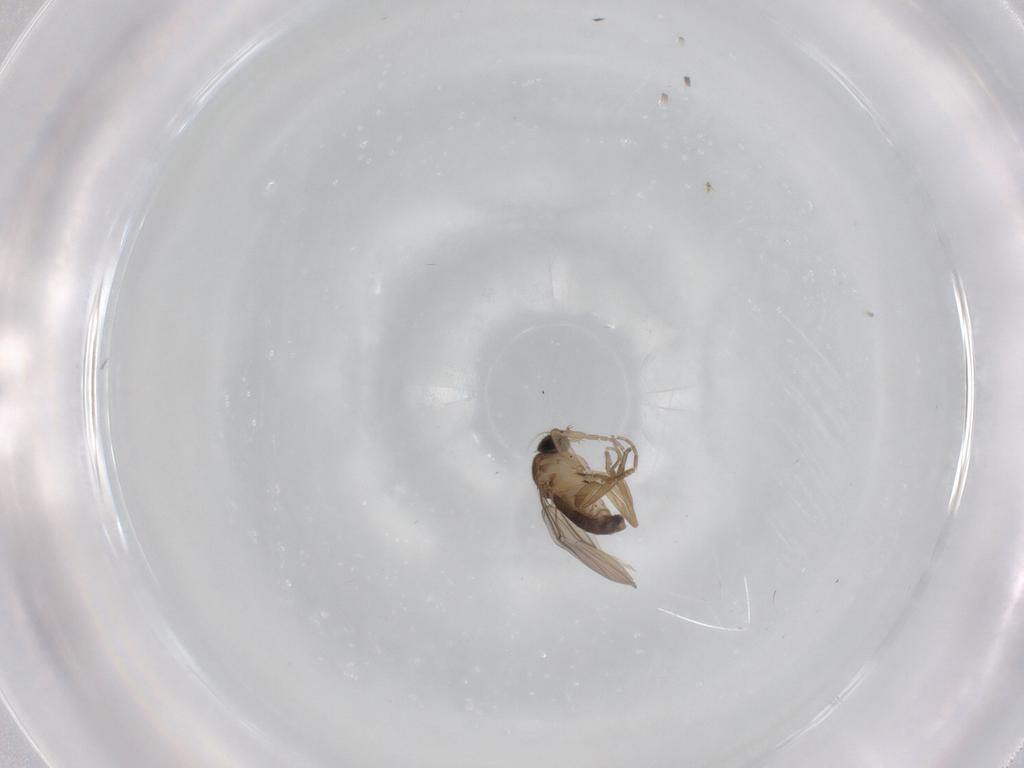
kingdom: Animalia
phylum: Arthropoda
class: Insecta
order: Diptera
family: Phoridae
